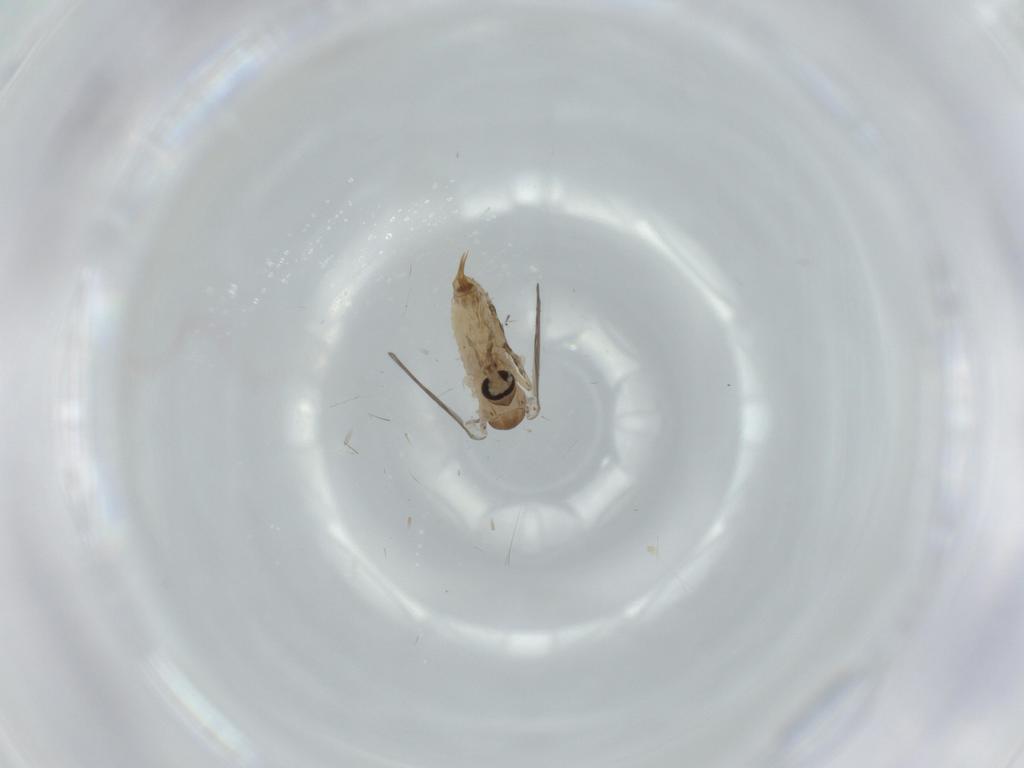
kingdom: Animalia
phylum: Arthropoda
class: Insecta
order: Diptera
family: Psychodidae
